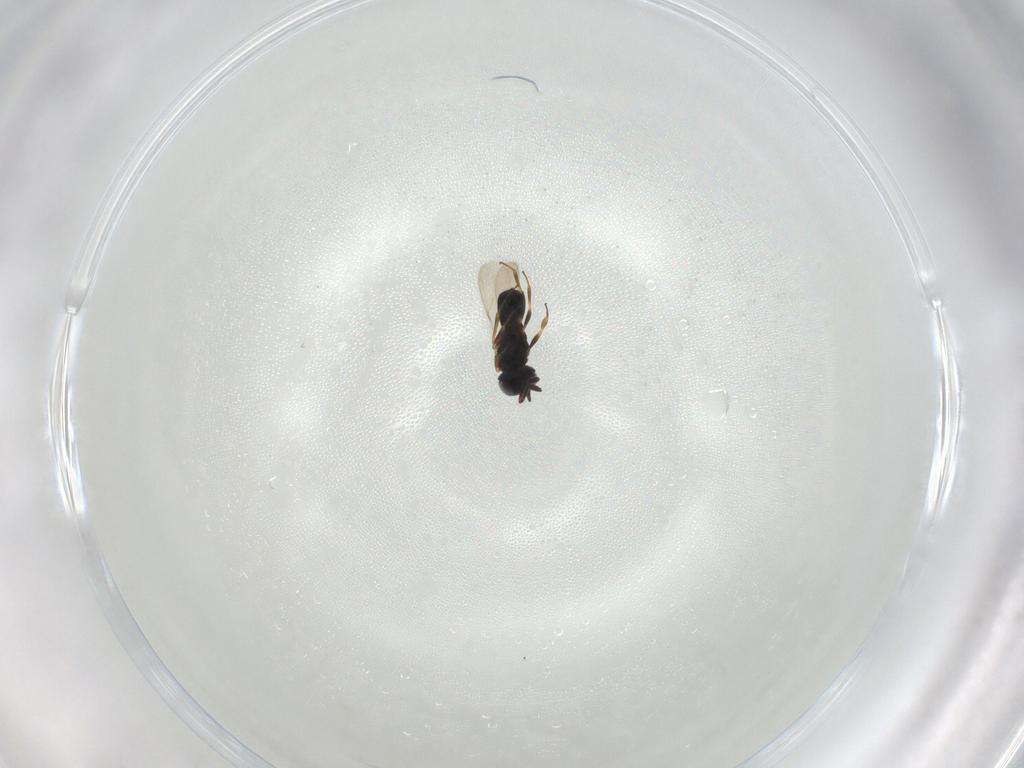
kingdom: Animalia
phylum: Arthropoda
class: Insecta
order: Hymenoptera
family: Scelionidae
